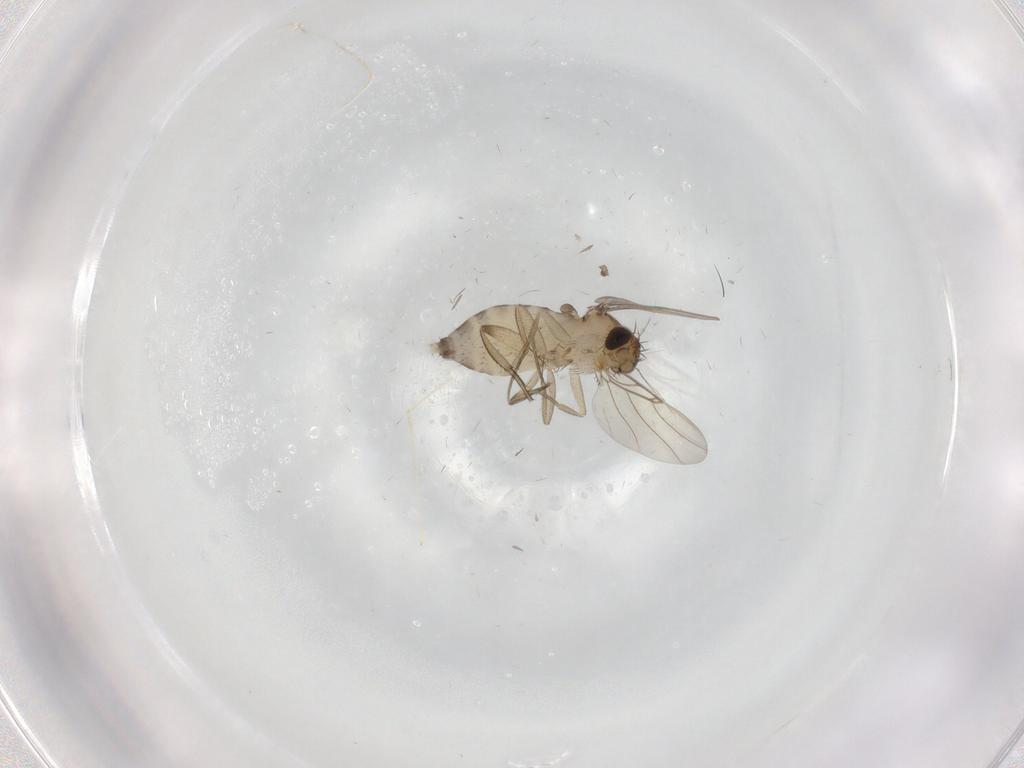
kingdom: Animalia
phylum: Arthropoda
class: Insecta
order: Diptera
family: Phoridae
